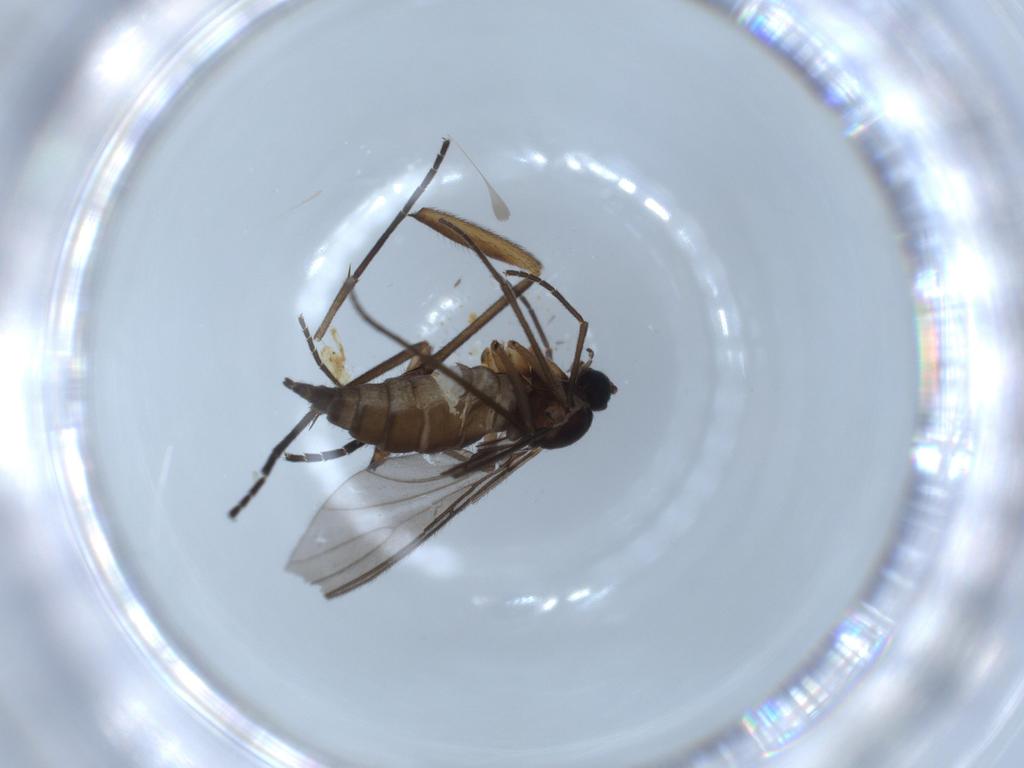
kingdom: Animalia
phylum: Arthropoda
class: Insecta
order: Diptera
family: Sciaridae
